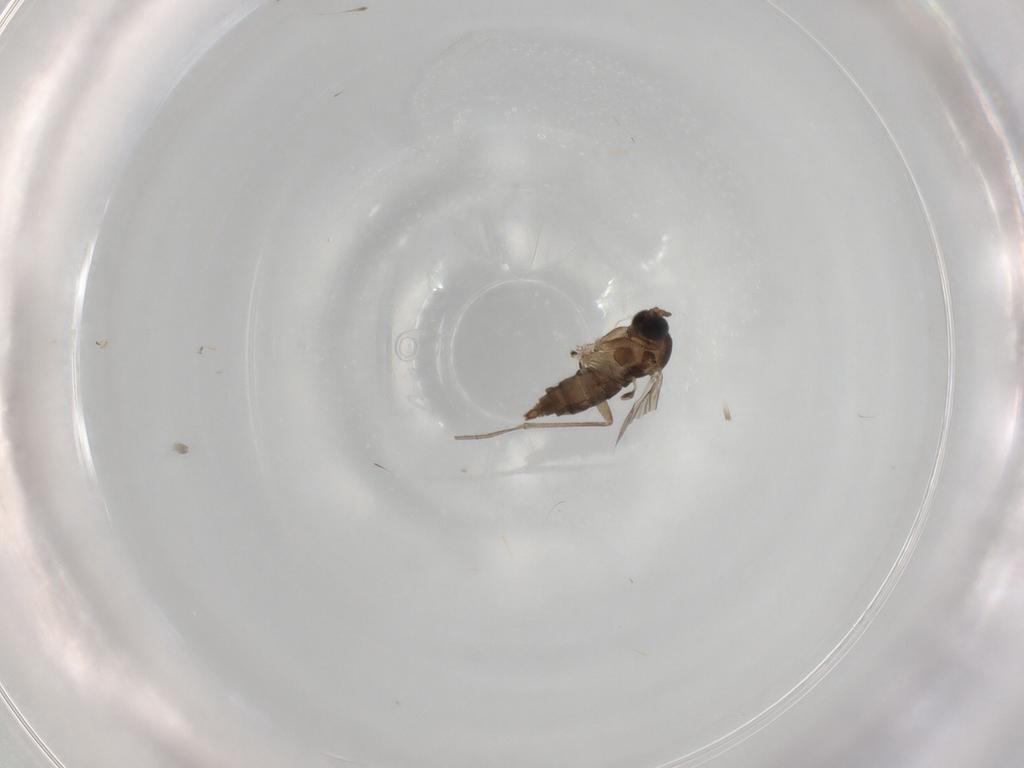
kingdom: Animalia
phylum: Arthropoda
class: Insecta
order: Diptera
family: Sciaridae
